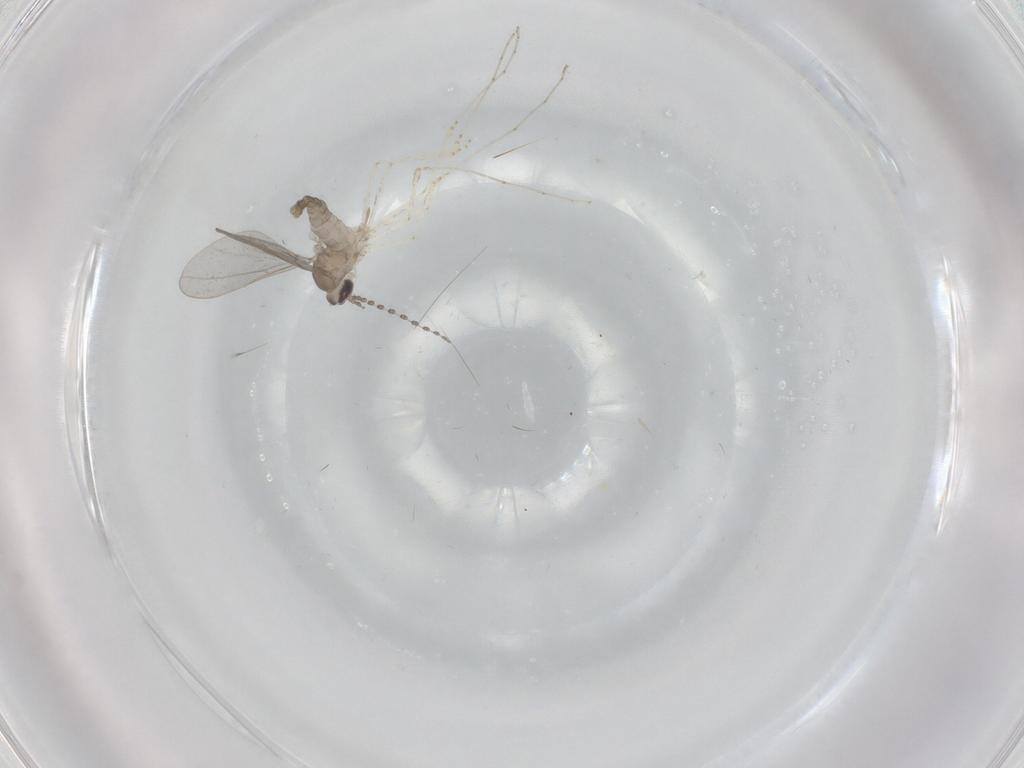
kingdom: Animalia
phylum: Arthropoda
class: Insecta
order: Diptera
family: Cecidomyiidae
